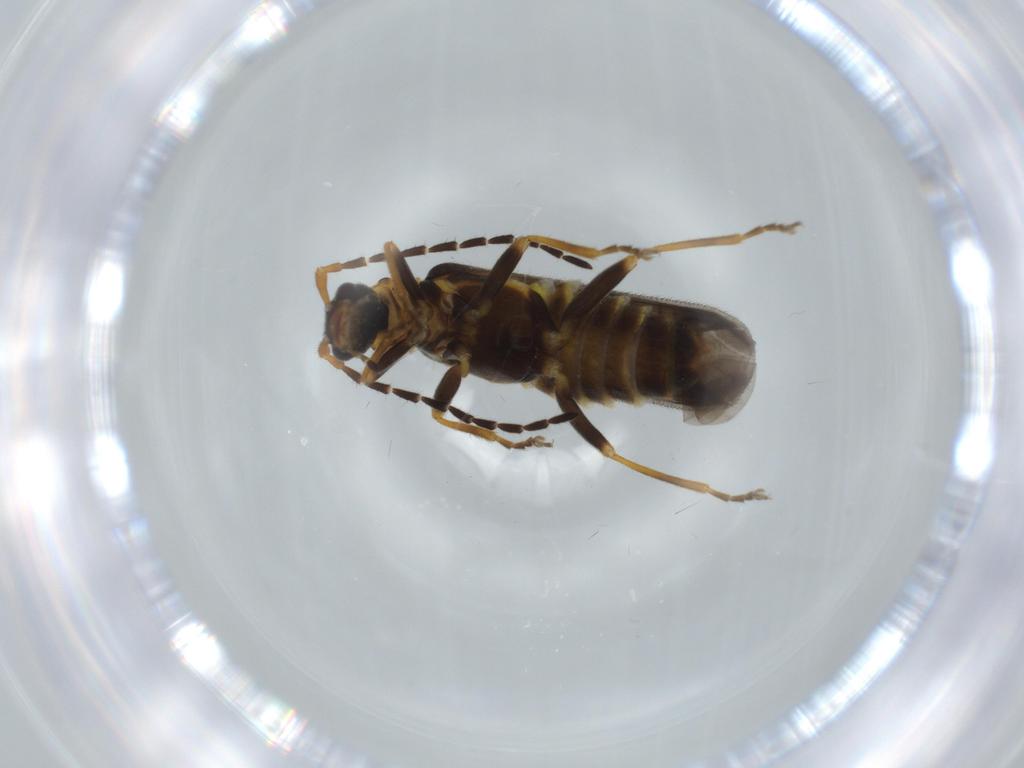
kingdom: Animalia
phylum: Arthropoda
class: Insecta
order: Coleoptera
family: Cantharidae
